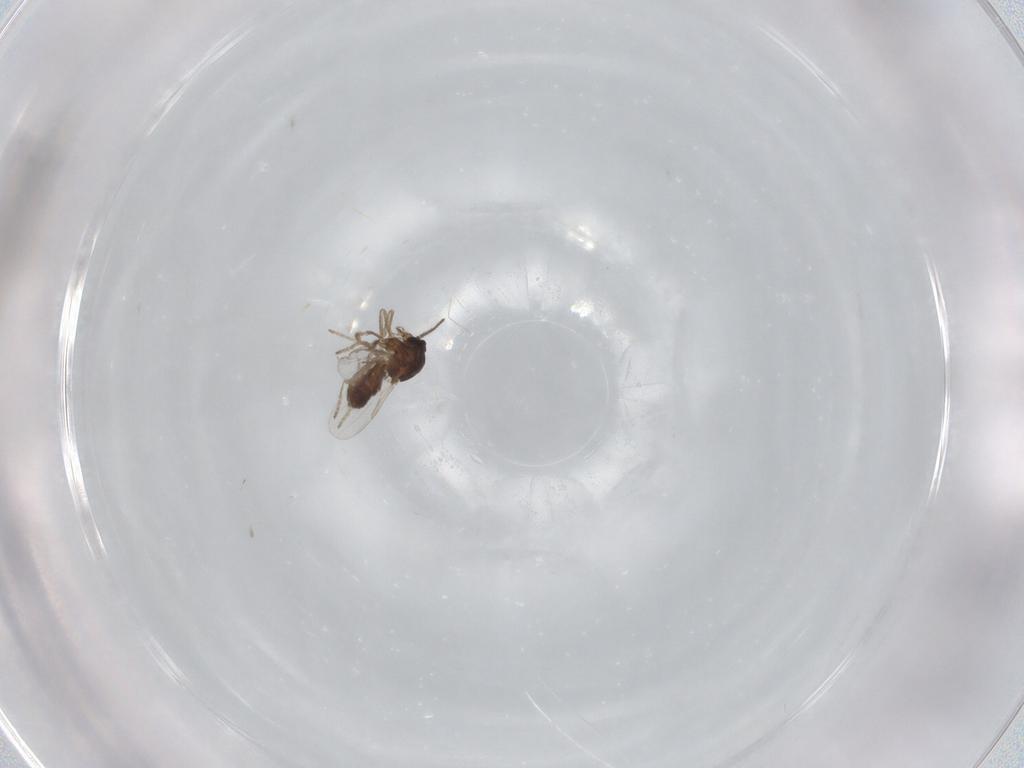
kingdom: Animalia
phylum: Arthropoda
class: Insecta
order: Diptera
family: Ceratopogonidae
